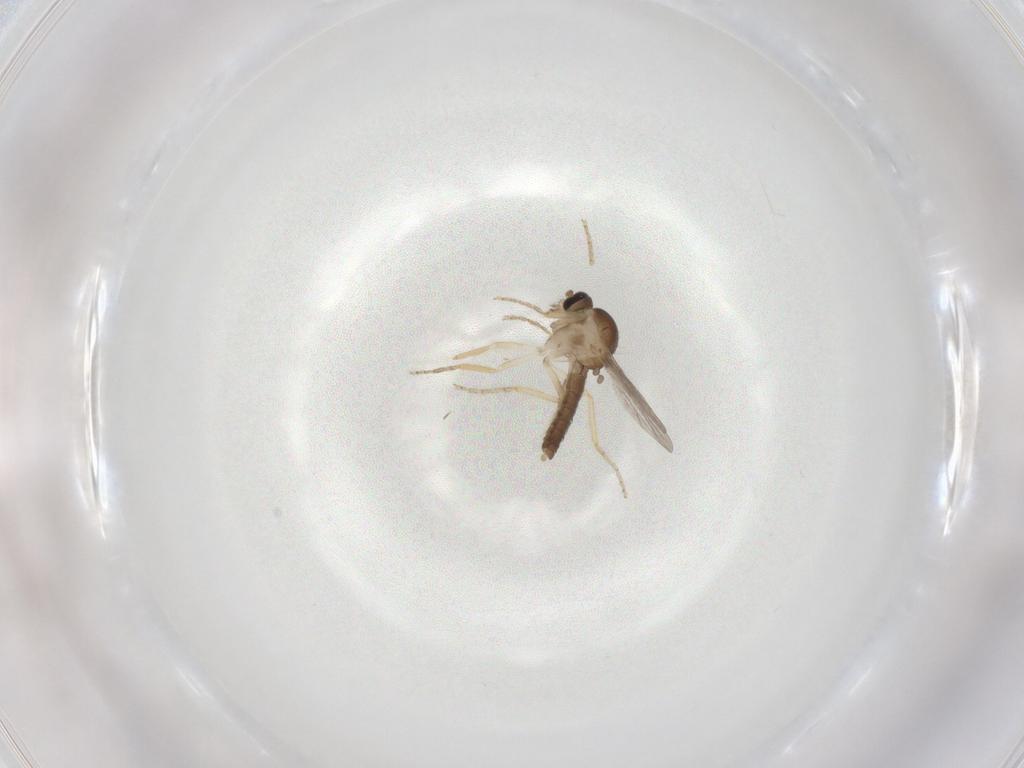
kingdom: Animalia
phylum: Arthropoda
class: Insecta
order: Diptera
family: Ceratopogonidae
